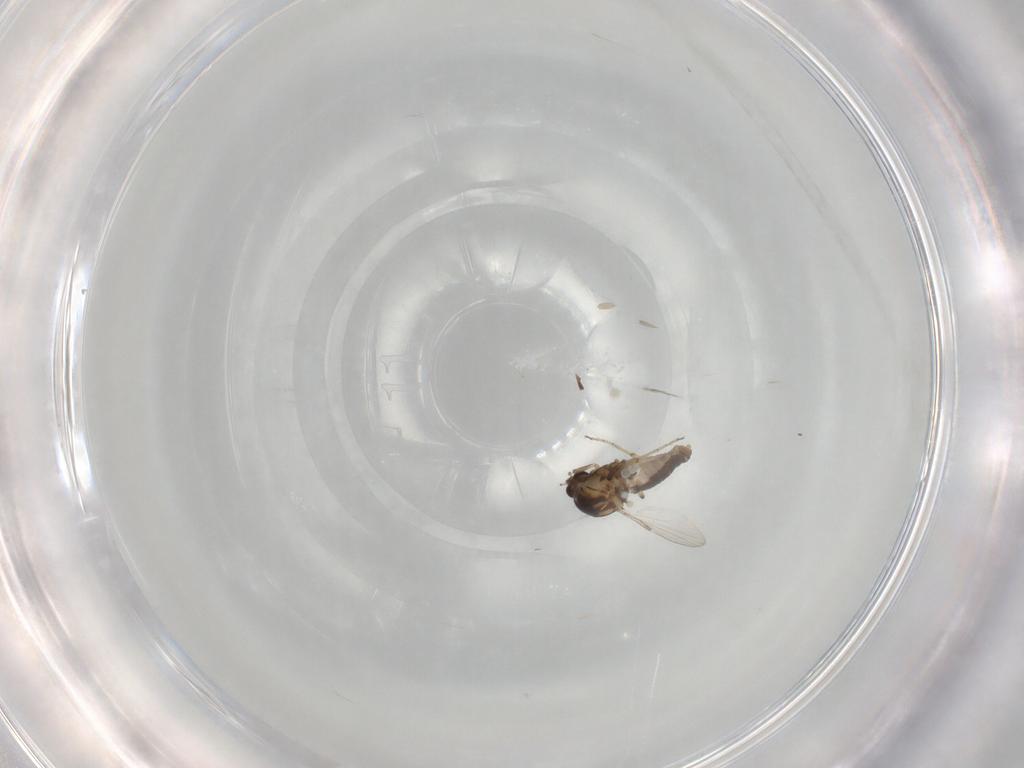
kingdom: Animalia
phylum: Arthropoda
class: Insecta
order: Diptera
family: Cecidomyiidae
